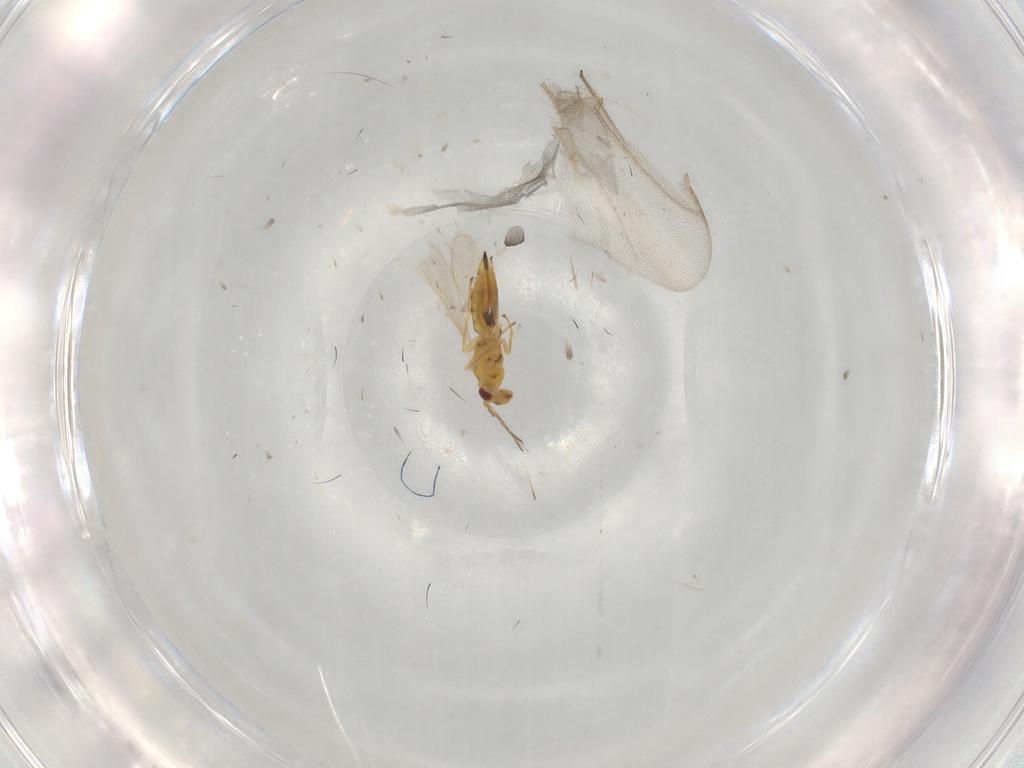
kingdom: Animalia
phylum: Arthropoda
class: Insecta
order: Hymenoptera
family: Eulophidae
